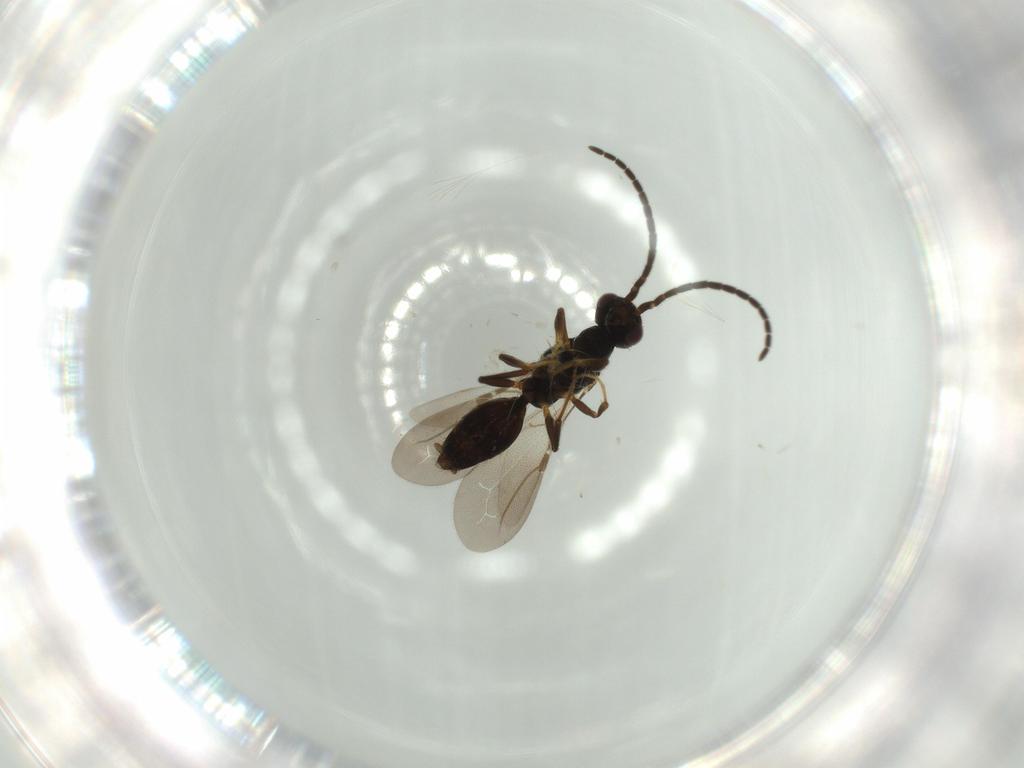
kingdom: Animalia
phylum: Arthropoda
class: Insecta
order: Hymenoptera
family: Bethylidae
